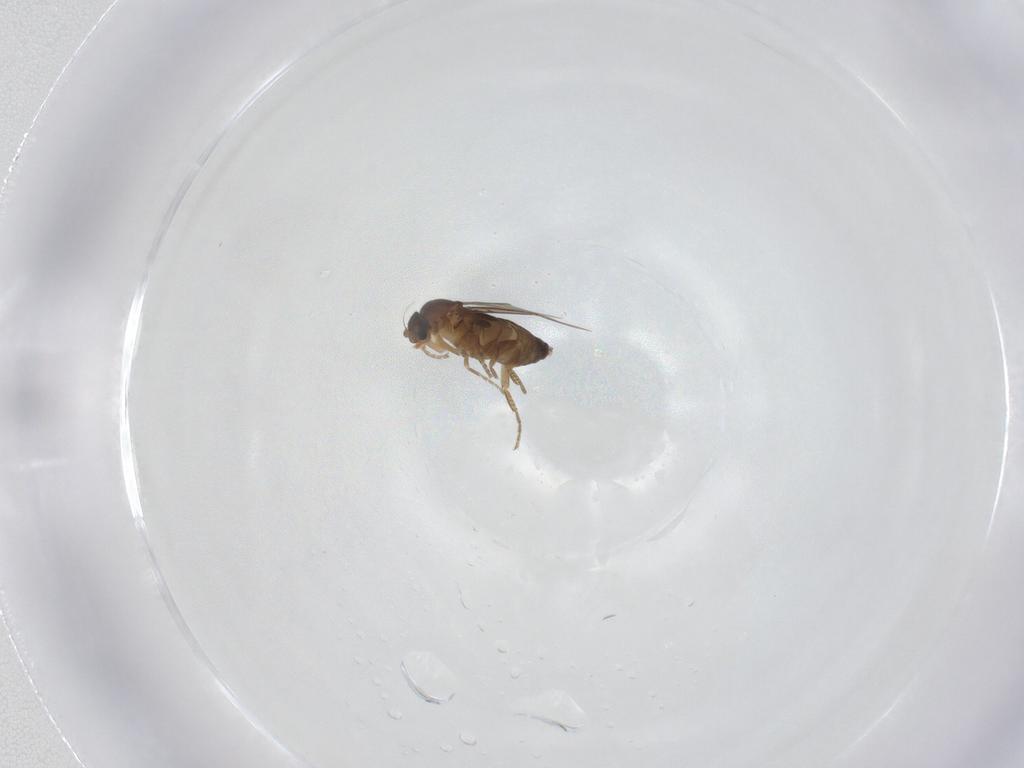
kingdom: Animalia
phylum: Arthropoda
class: Insecta
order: Diptera
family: Phoridae
